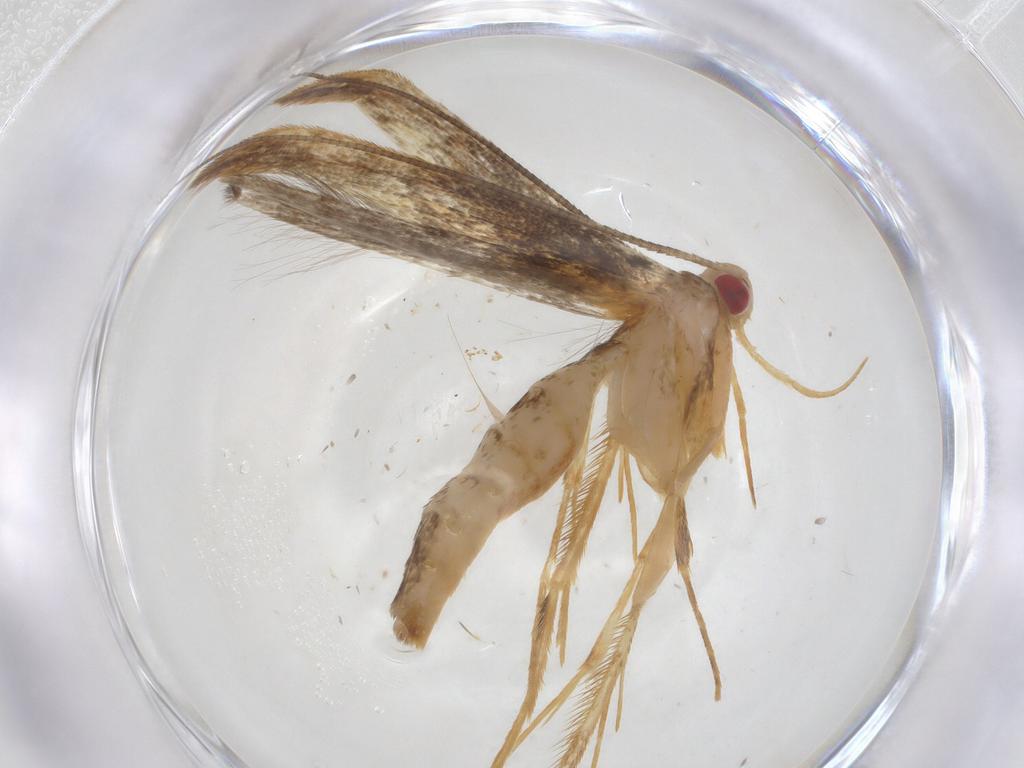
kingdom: Animalia
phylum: Arthropoda
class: Insecta
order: Lepidoptera
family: Gracillariidae
